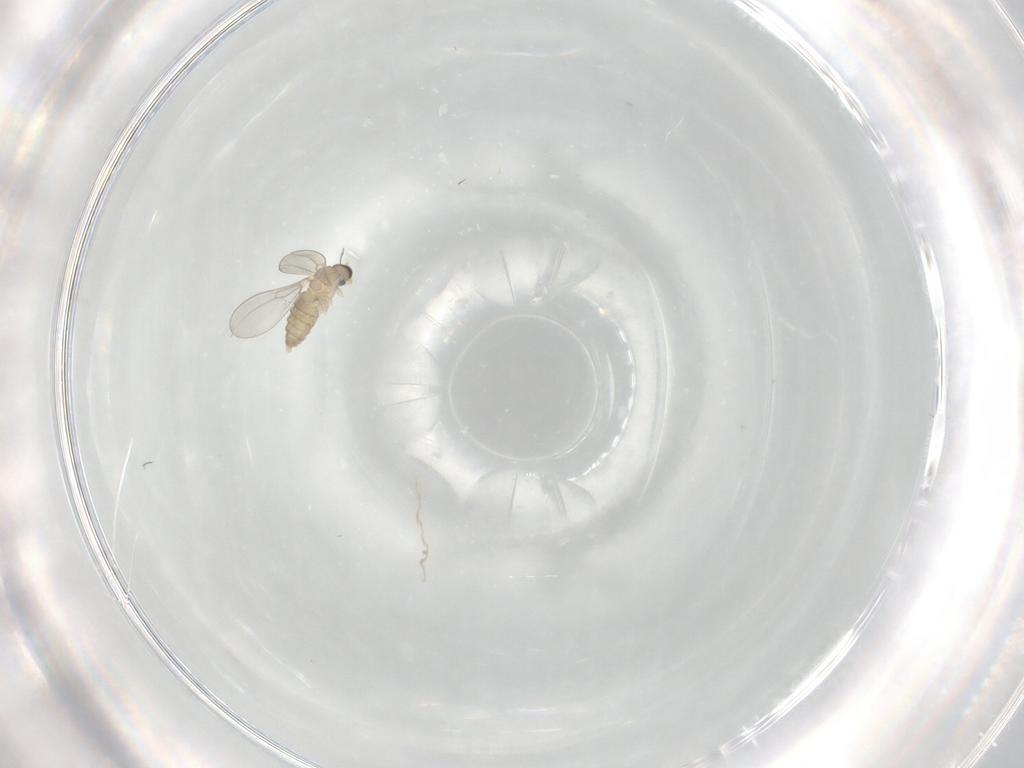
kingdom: Animalia
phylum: Arthropoda
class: Insecta
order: Diptera
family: Cecidomyiidae
